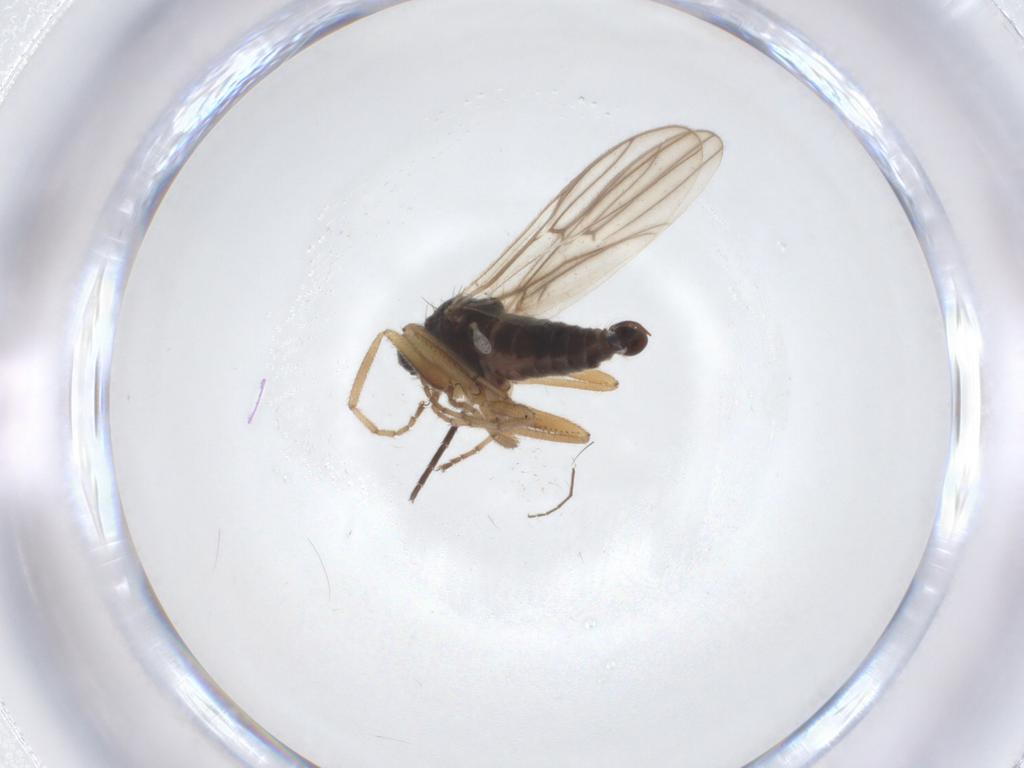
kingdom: Animalia
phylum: Arthropoda
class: Insecta
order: Diptera
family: Hybotidae
